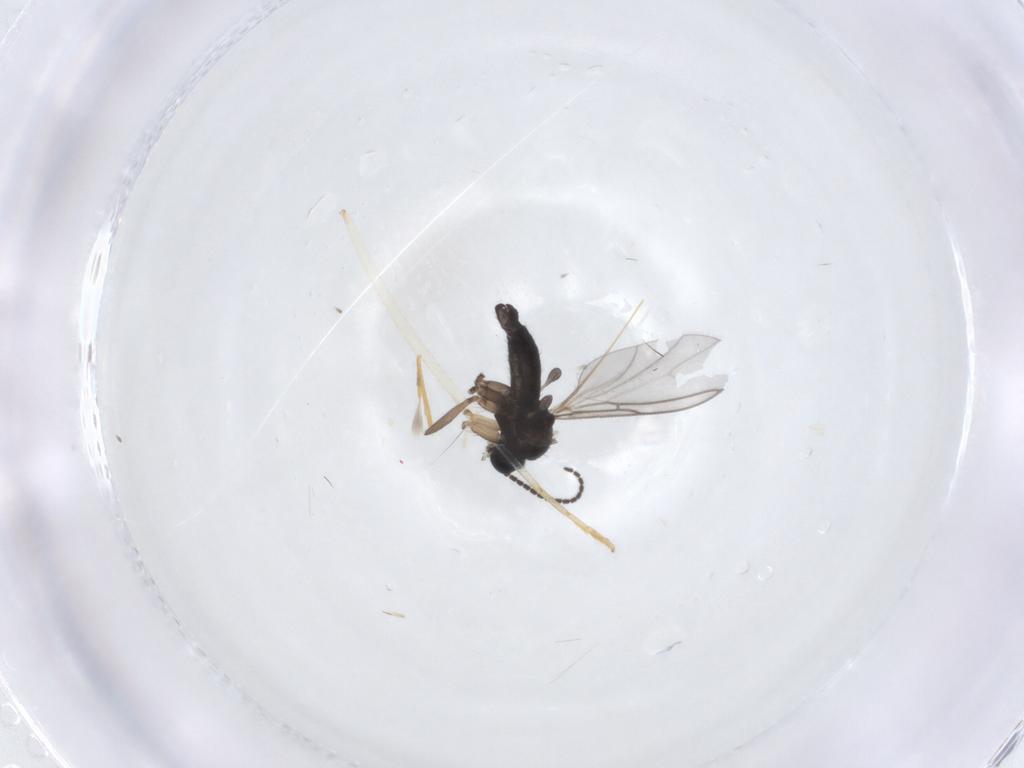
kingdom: Animalia
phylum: Arthropoda
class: Insecta
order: Diptera
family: Sciaridae
